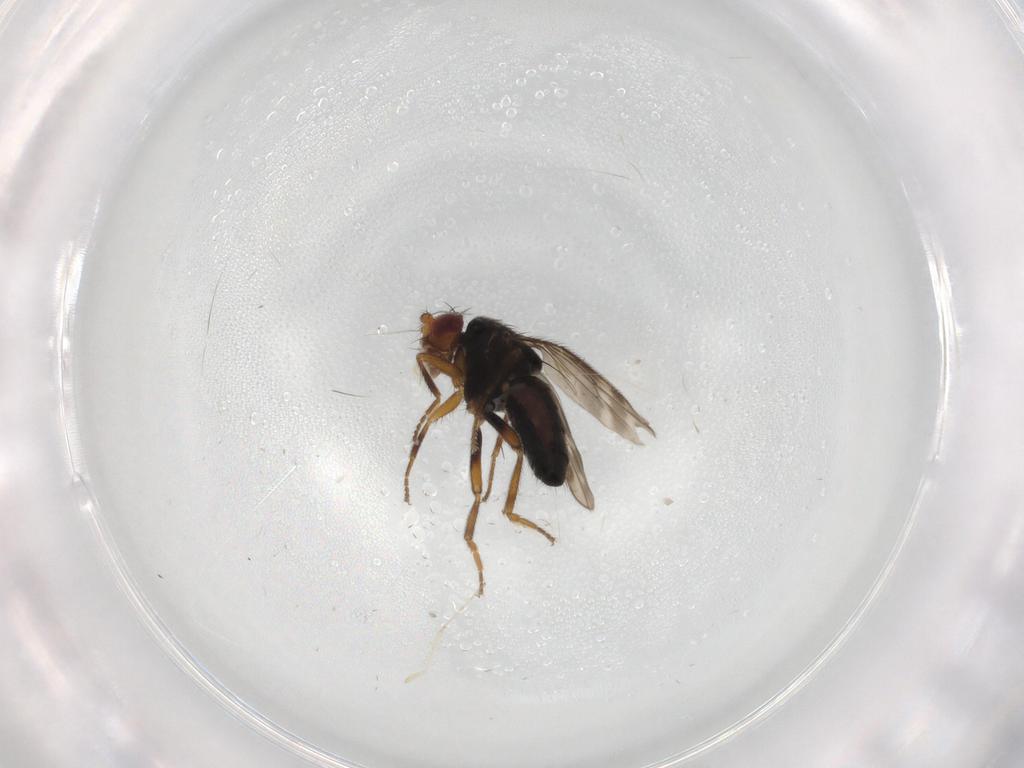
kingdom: Animalia
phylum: Arthropoda
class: Insecta
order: Diptera
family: Sphaeroceridae
